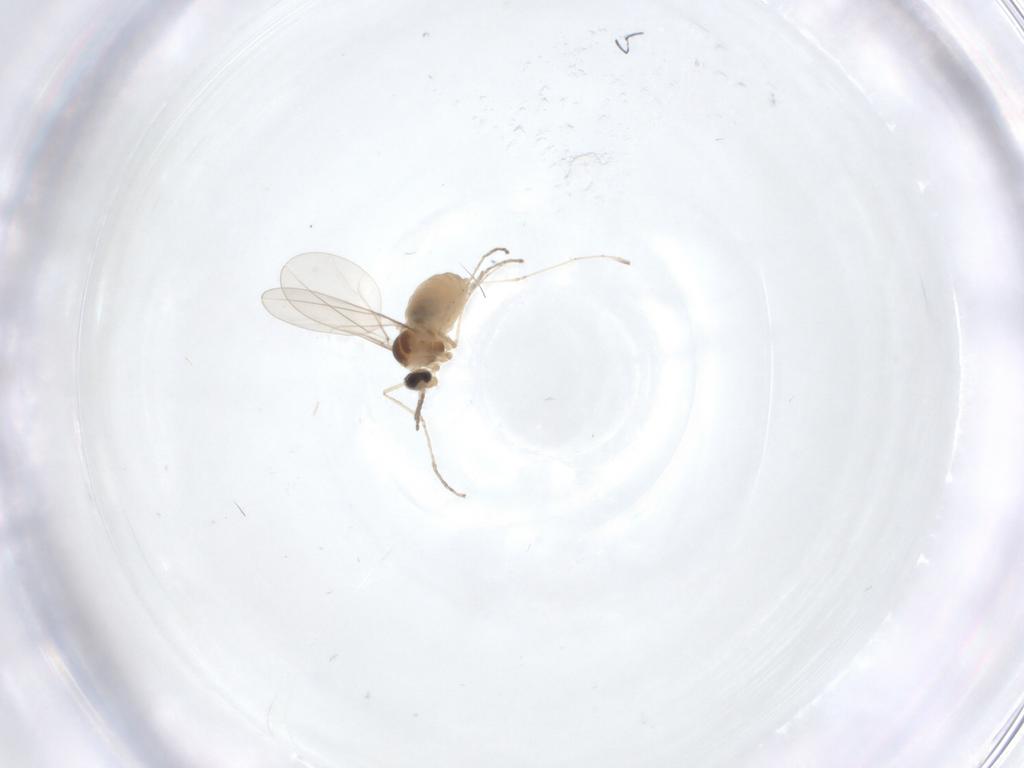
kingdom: Animalia
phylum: Arthropoda
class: Insecta
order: Diptera
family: Cecidomyiidae
